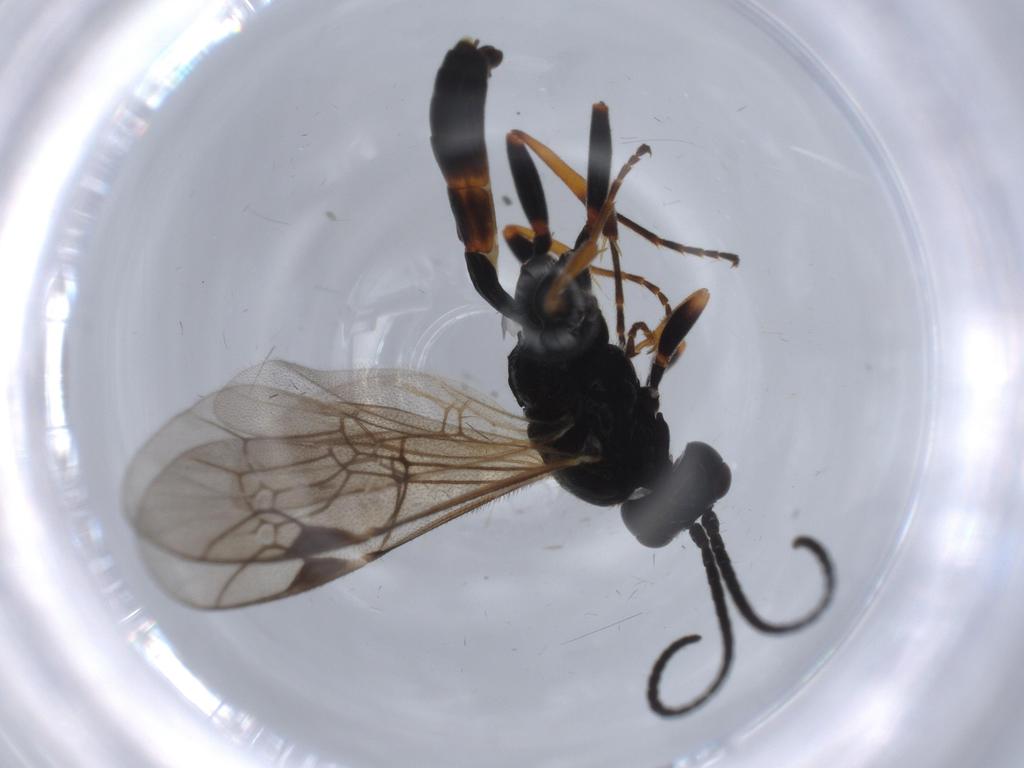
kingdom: Animalia
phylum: Arthropoda
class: Insecta
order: Hymenoptera
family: Ichneumonidae
